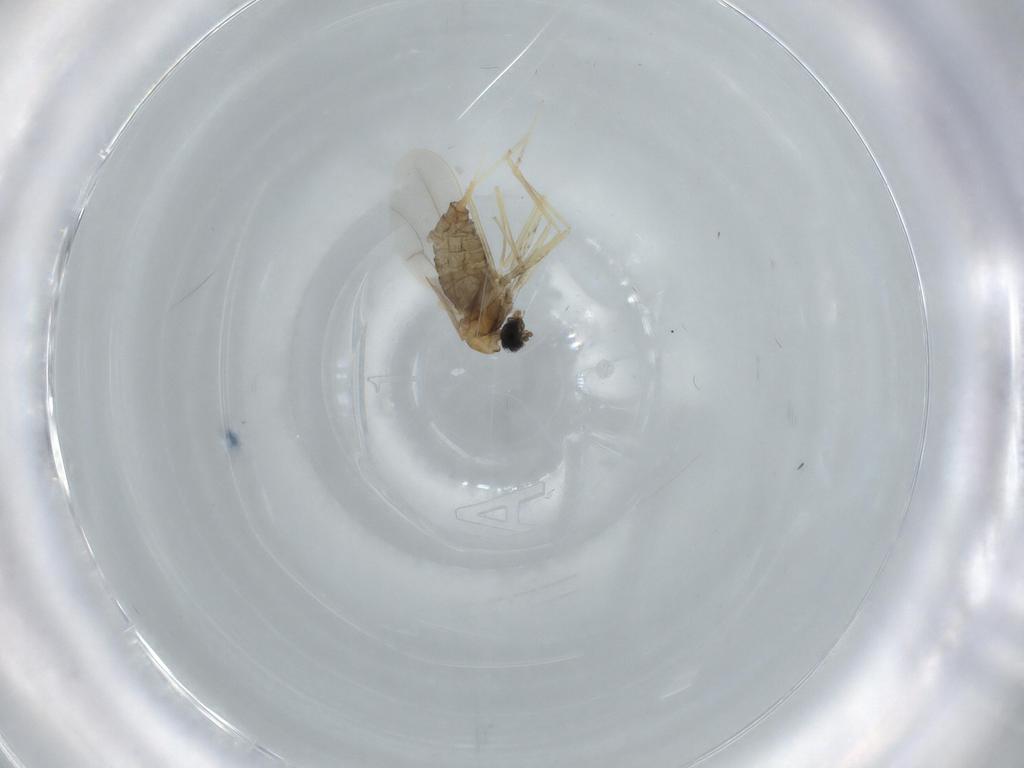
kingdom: Animalia
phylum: Arthropoda
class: Insecta
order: Diptera
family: Cecidomyiidae
